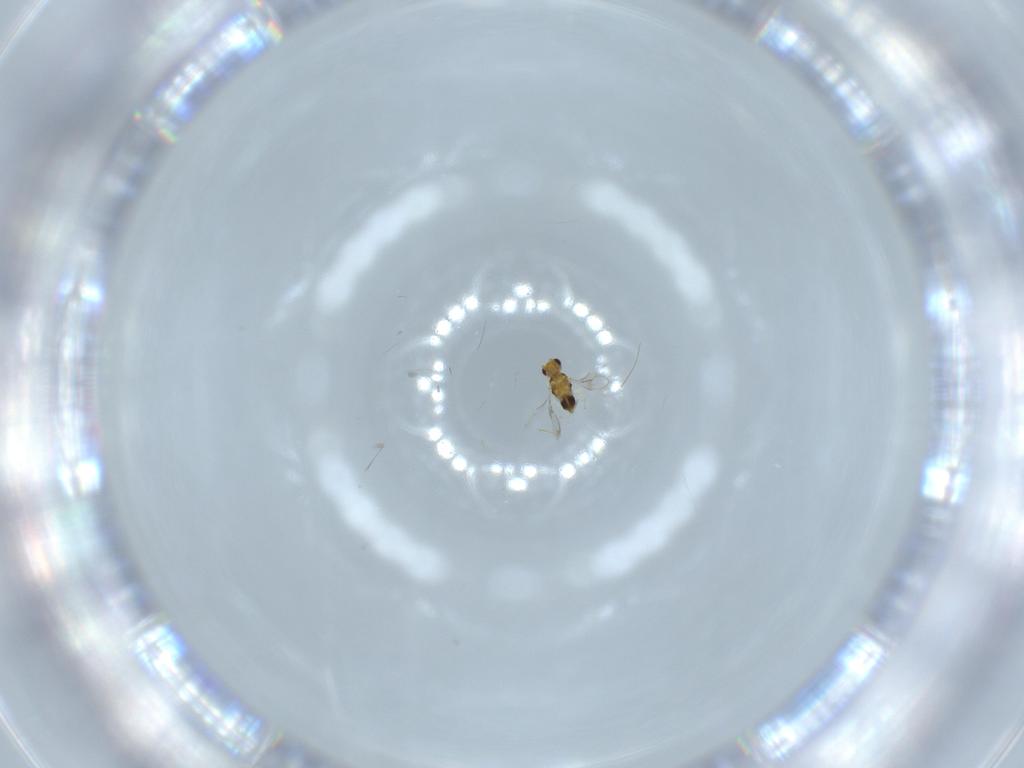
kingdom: Animalia
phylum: Arthropoda
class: Insecta
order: Hymenoptera
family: Aphelinidae
